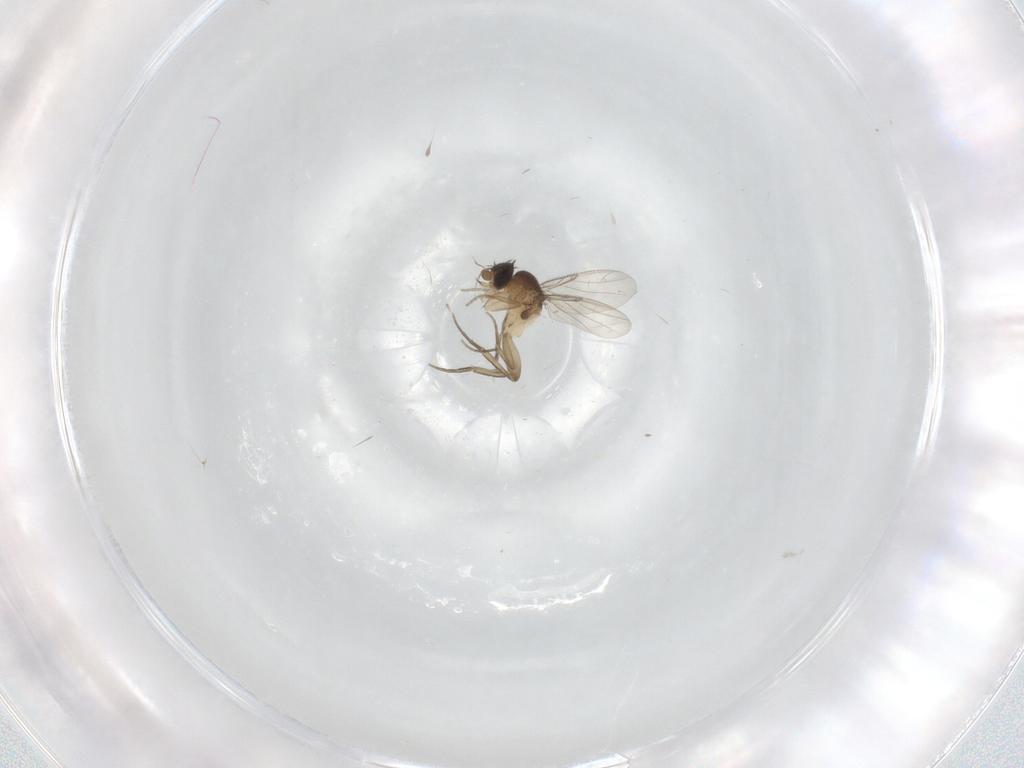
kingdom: Animalia
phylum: Arthropoda
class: Insecta
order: Diptera
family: Phoridae
